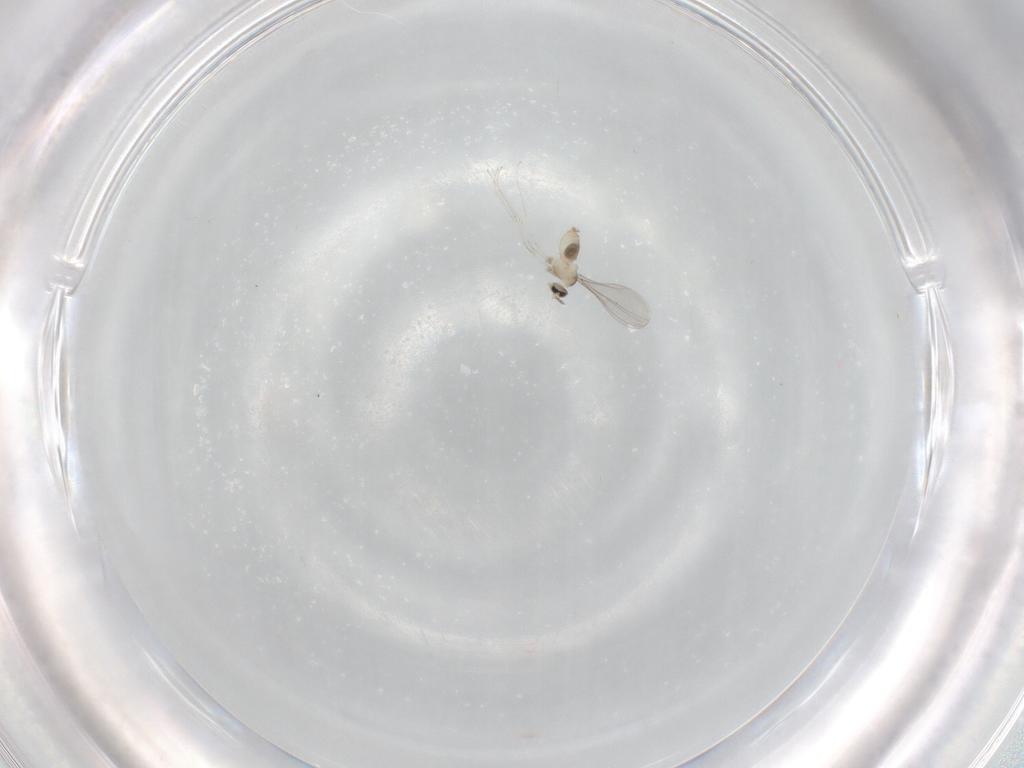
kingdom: Animalia
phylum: Arthropoda
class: Insecta
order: Diptera
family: Cecidomyiidae
